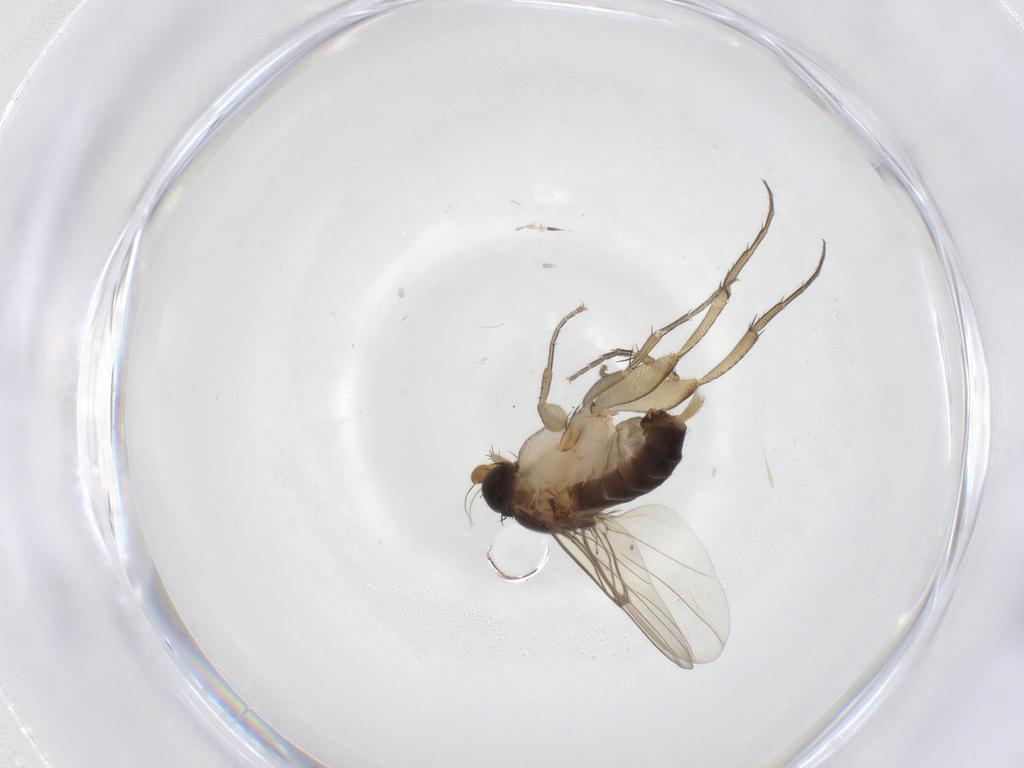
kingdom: Animalia
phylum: Arthropoda
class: Insecta
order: Diptera
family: Phoridae
